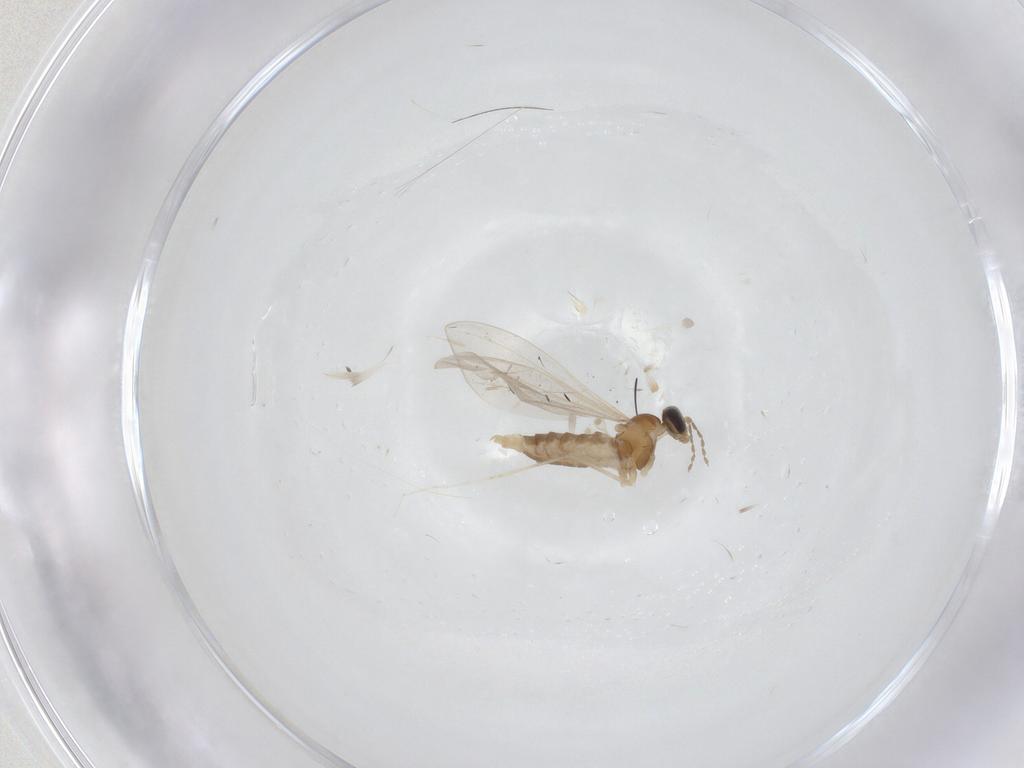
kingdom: Animalia
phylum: Arthropoda
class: Insecta
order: Diptera
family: Cecidomyiidae
